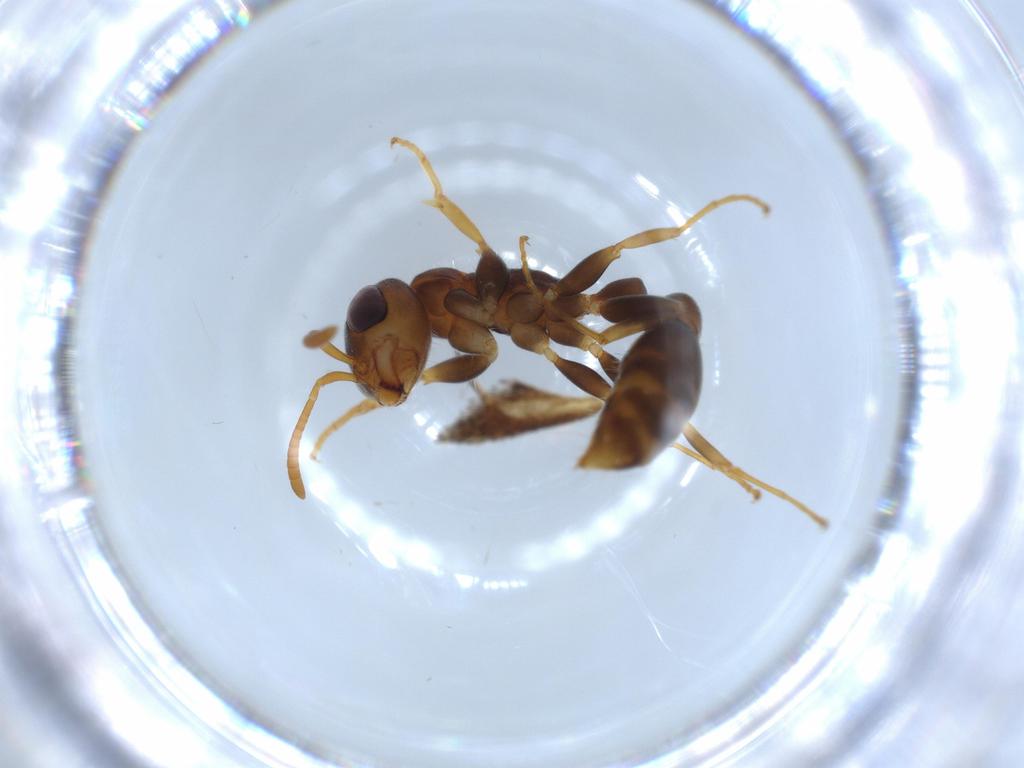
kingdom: Animalia
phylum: Arthropoda
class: Insecta
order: Hymenoptera
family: Formicidae
